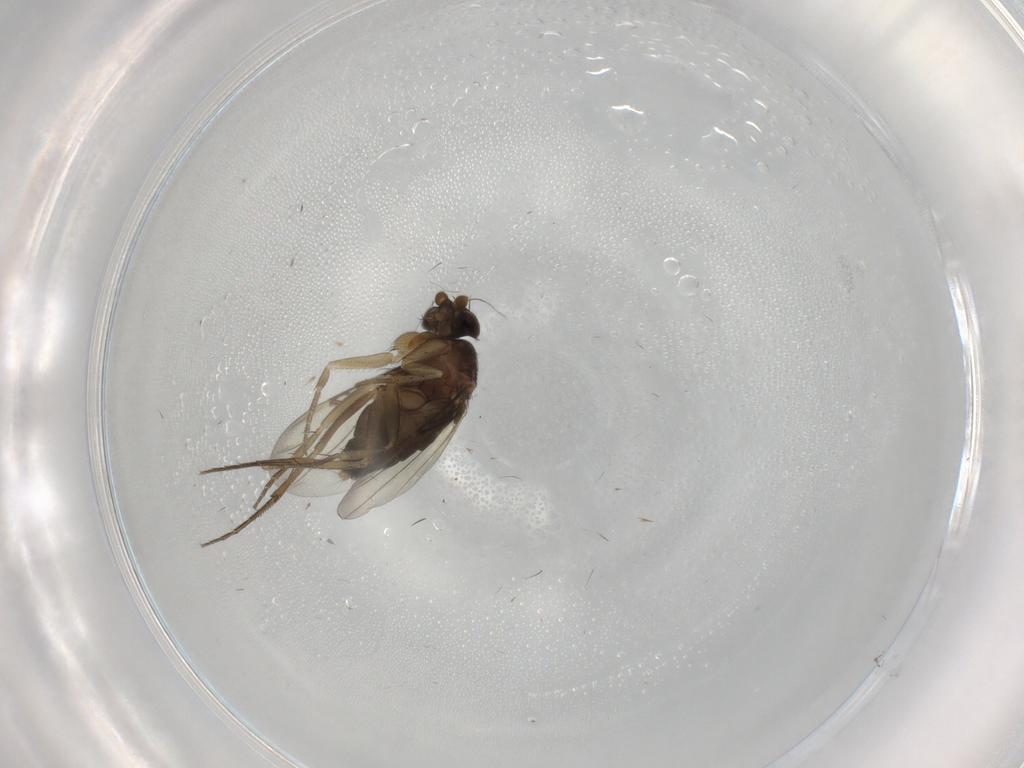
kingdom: Animalia
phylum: Arthropoda
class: Insecta
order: Diptera
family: Phoridae
